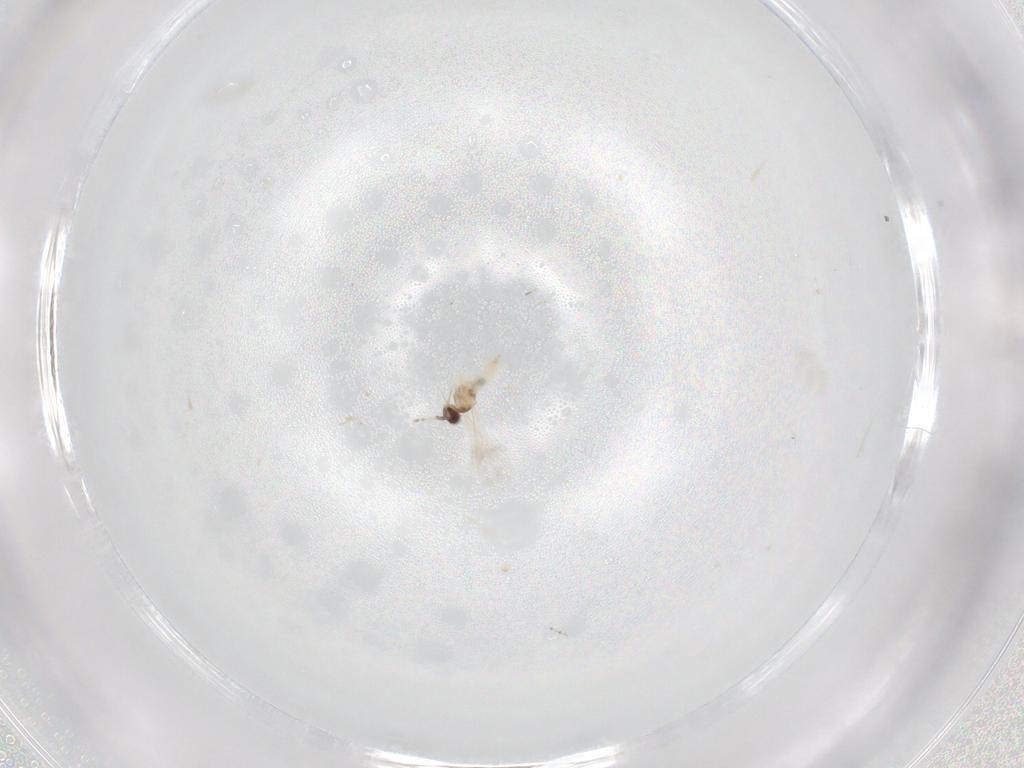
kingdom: Animalia
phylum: Arthropoda
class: Insecta
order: Diptera
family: Cecidomyiidae
